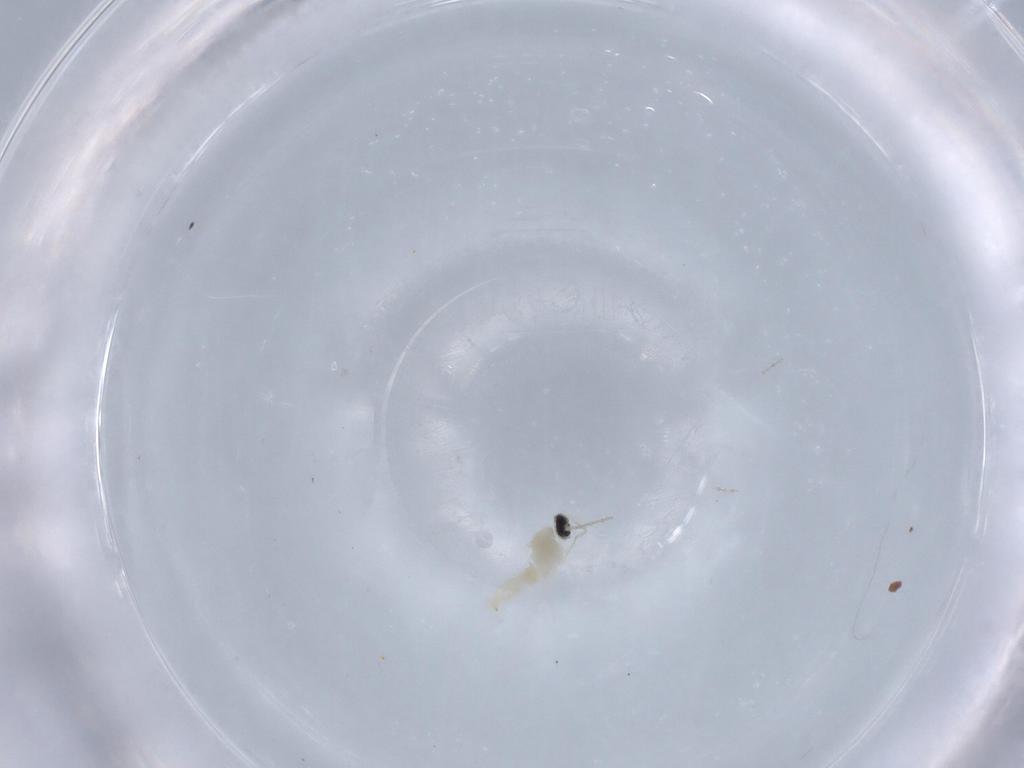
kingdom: Animalia
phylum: Arthropoda
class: Insecta
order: Diptera
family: Cecidomyiidae
